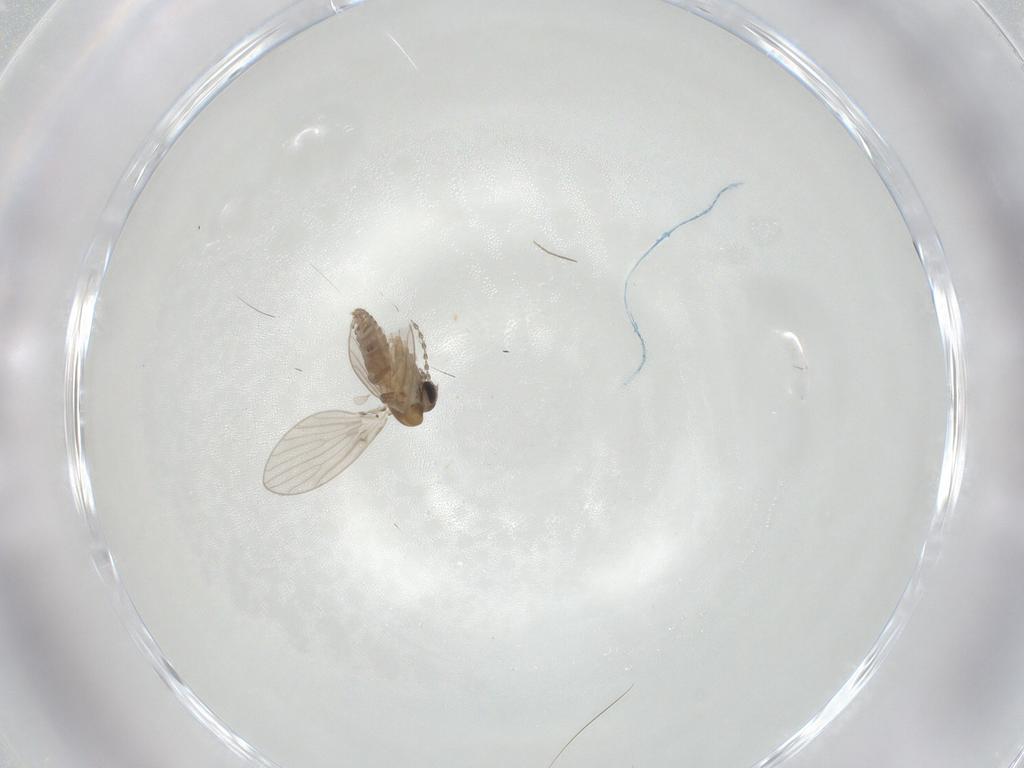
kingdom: Animalia
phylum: Arthropoda
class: Insecta
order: Diptera
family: Psychodidae
